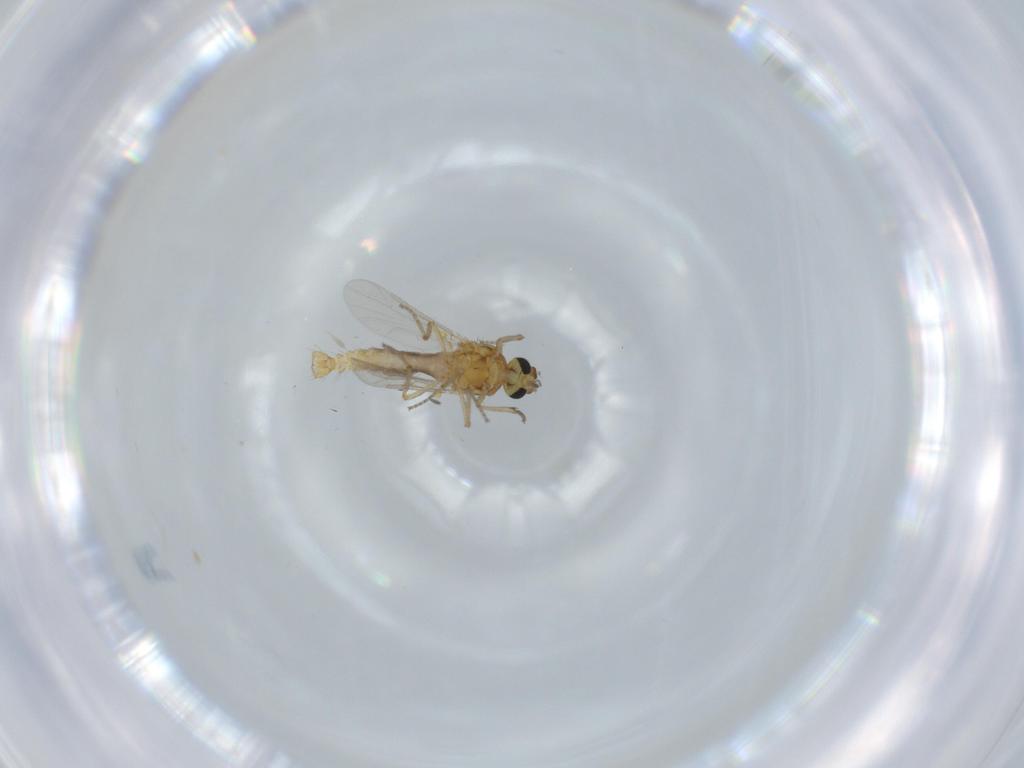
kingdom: Animalia
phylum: Arthropoda
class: Insecta
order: Diptera
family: Ceratopogonidae
